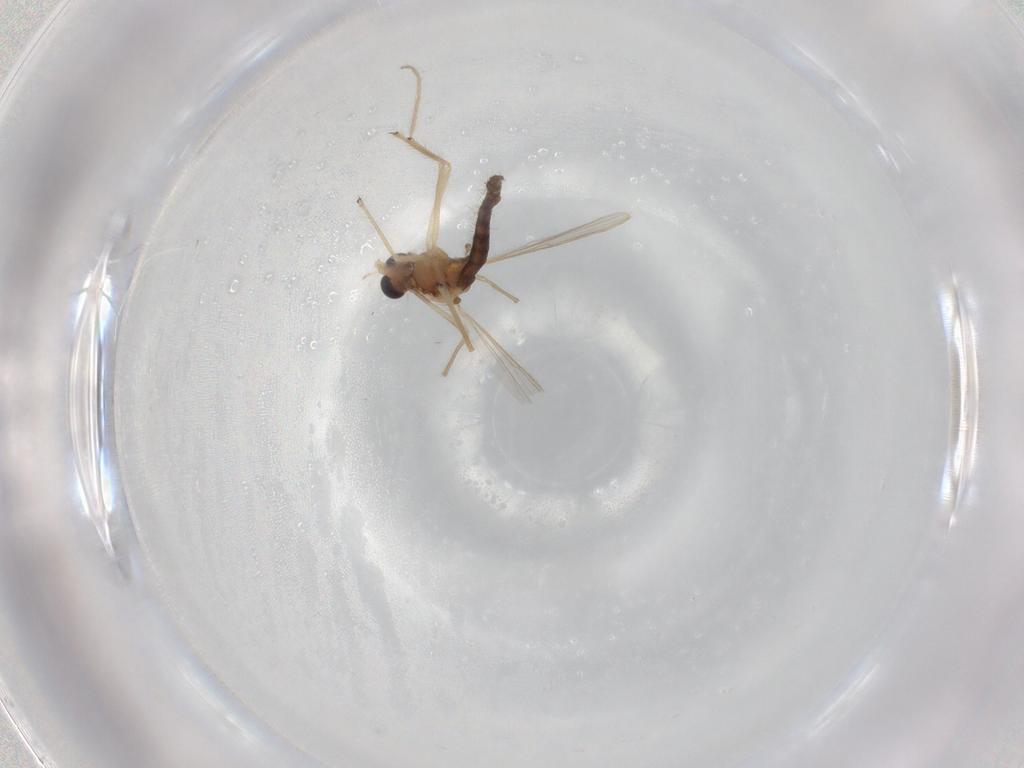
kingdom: Animalia
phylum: Arthropoda
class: Insecta
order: Diptera
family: Chironomidae
